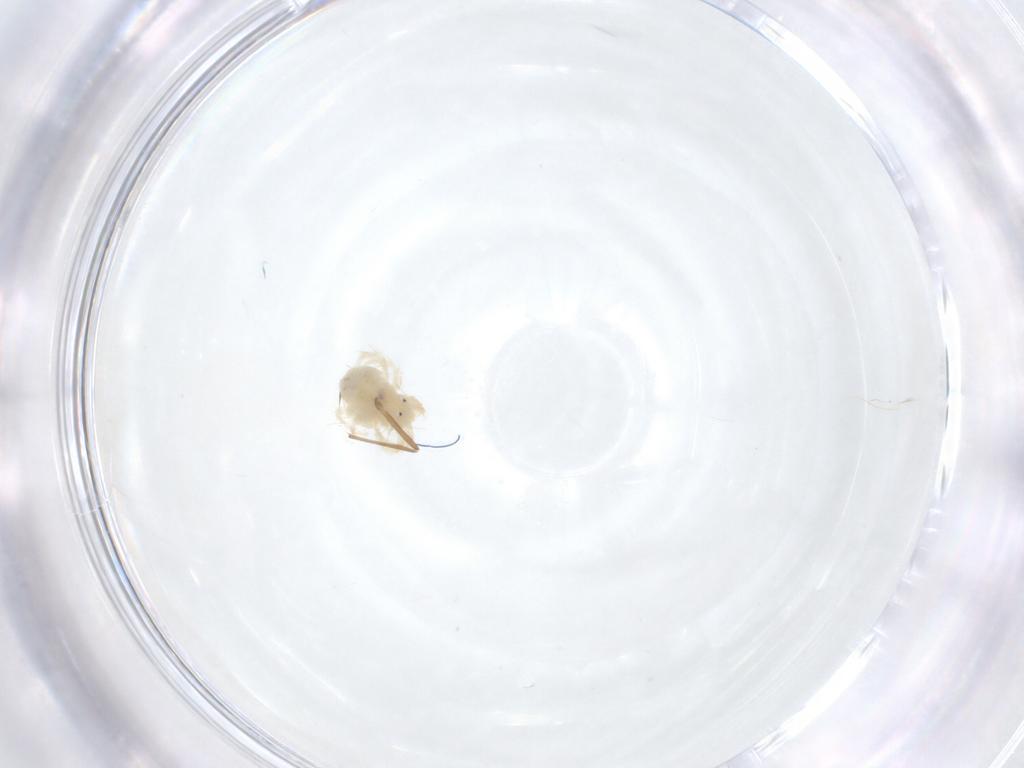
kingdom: Animalia
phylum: Arthropoda
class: Arachnida
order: Trombidiformes
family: Anystidae
